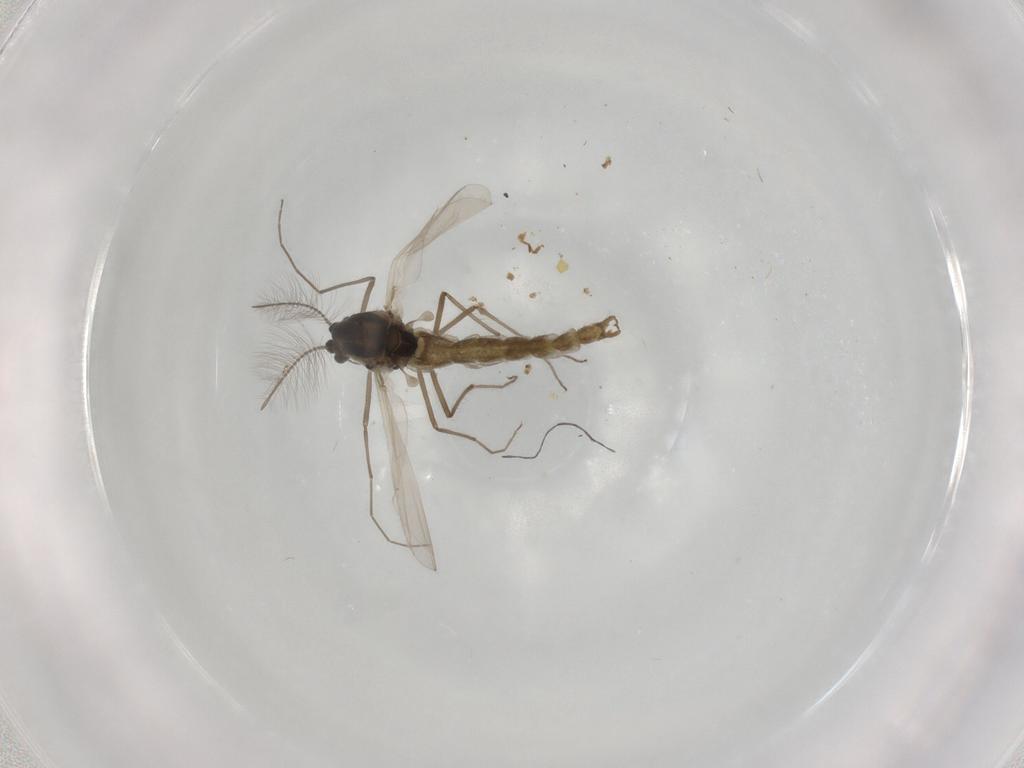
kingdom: Animalia
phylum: Arthropoda
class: Insecta
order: Diptera
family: Chironomidae
